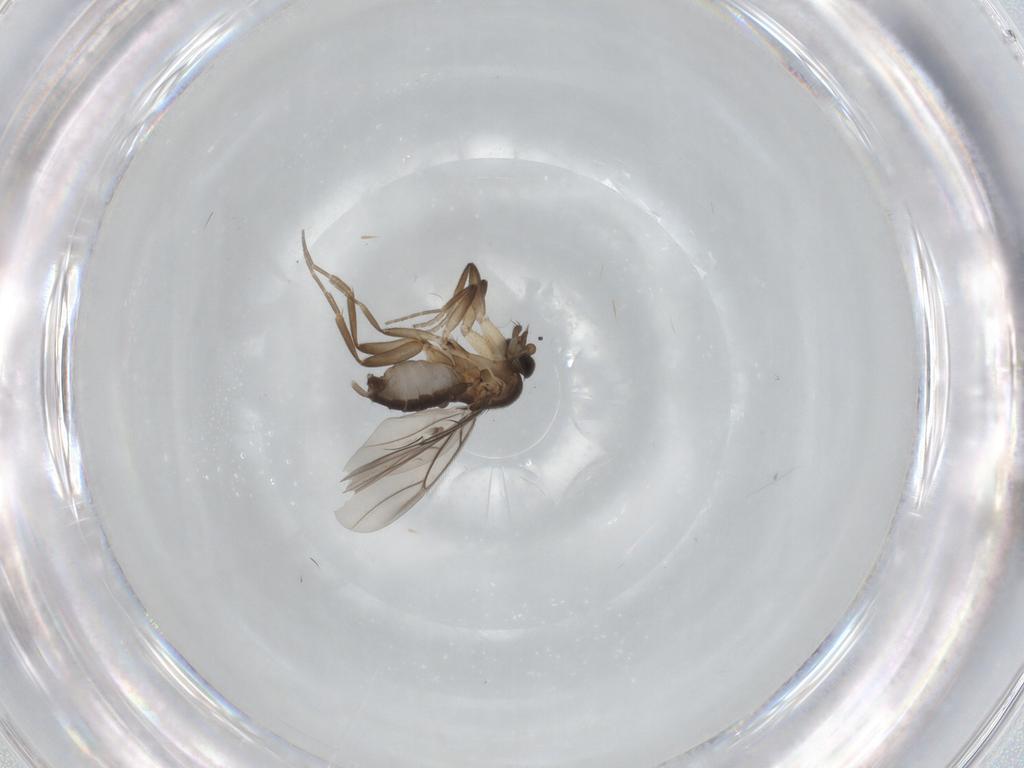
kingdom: Animalia
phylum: Arthropoda
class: Insecta
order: Diptera
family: Phoridae
